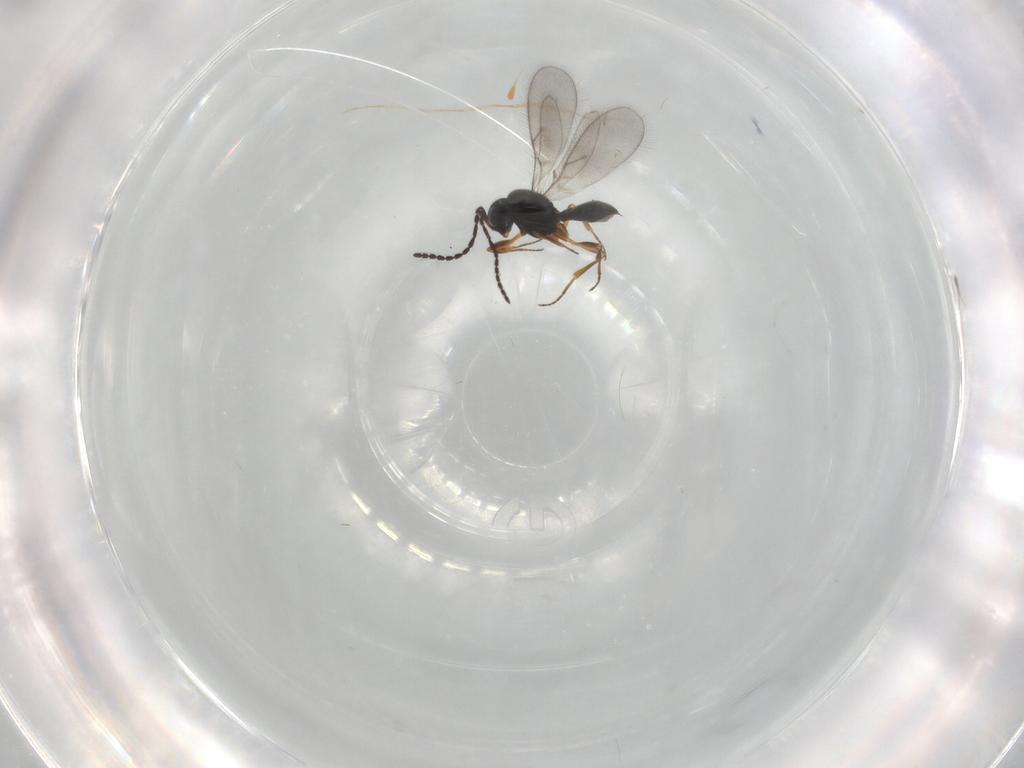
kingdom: Animalia
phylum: Arthropoda
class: Insecta
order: Hymenoptera
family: Scelionidae
